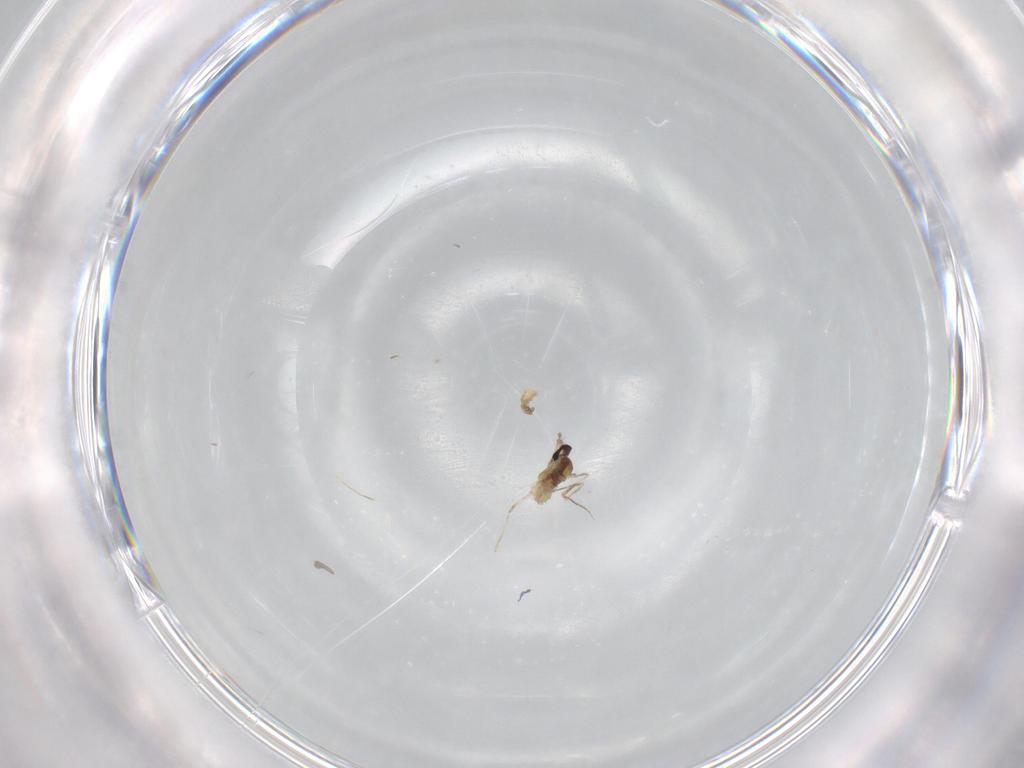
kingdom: Animalia
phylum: Arthropoda
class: Insecta
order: Diptera
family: Cecidomyiidae
